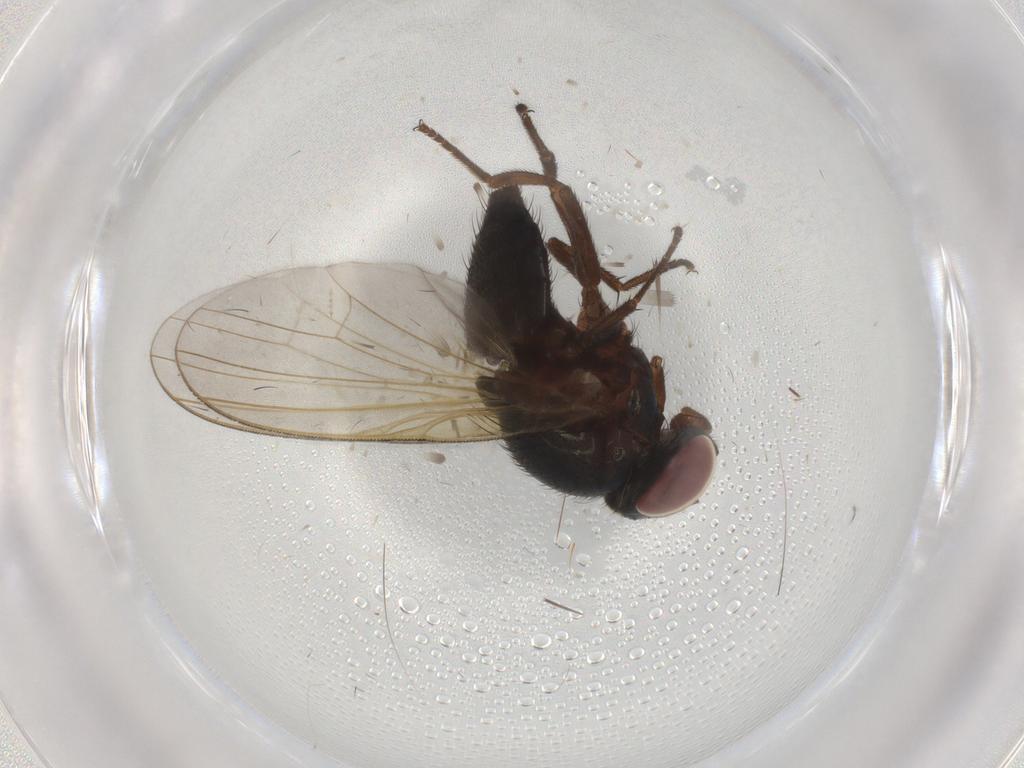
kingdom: Animalia
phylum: Arthropoda
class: Insecta
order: Diptera
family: Lonchaeidae
